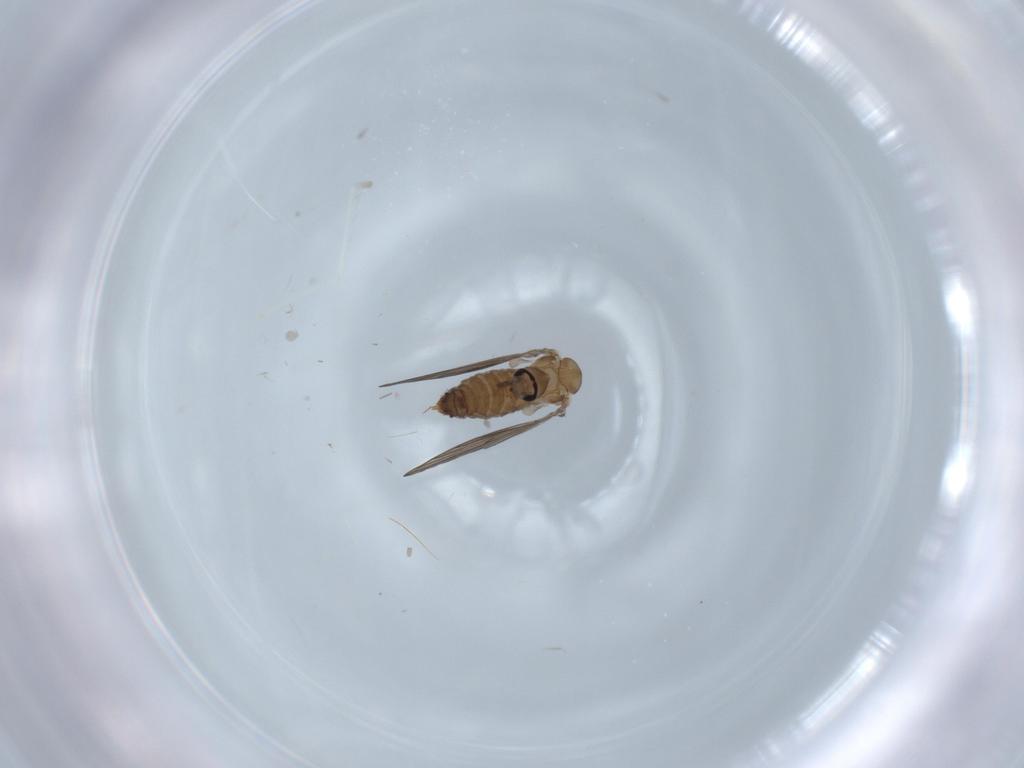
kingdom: Animalia
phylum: Arthropoda
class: Insecta
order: Diptera
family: Psychodidae
